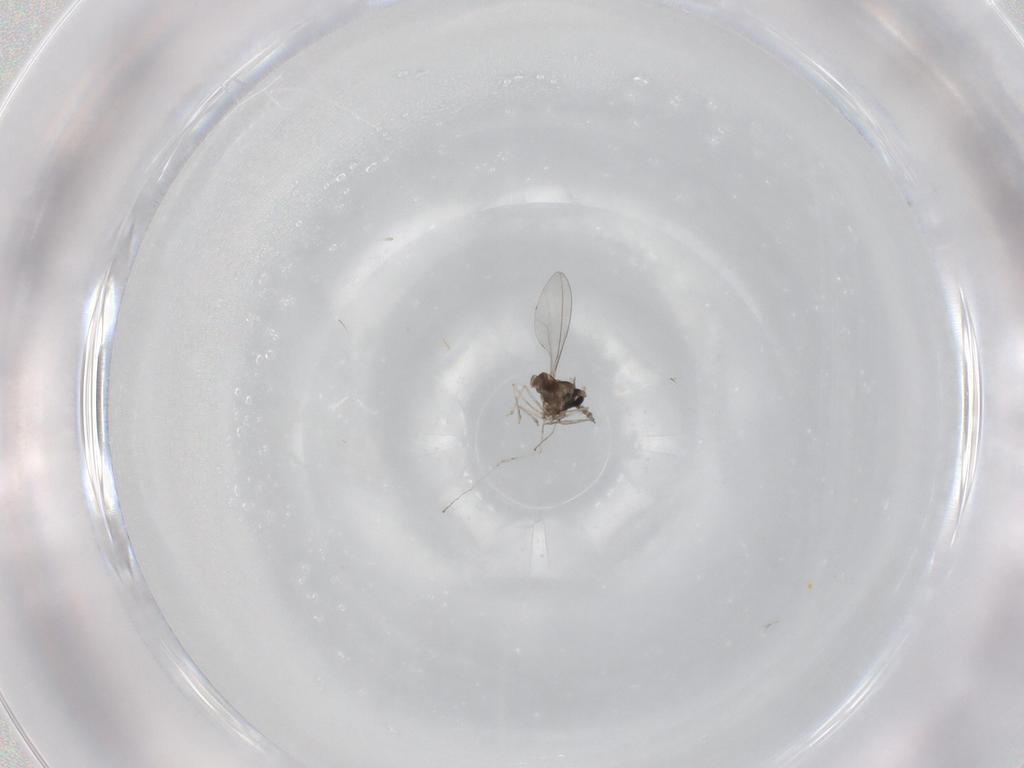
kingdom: Animalia
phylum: Arthropoda
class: Insecta
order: Diptera
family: Cecidomyiidae
